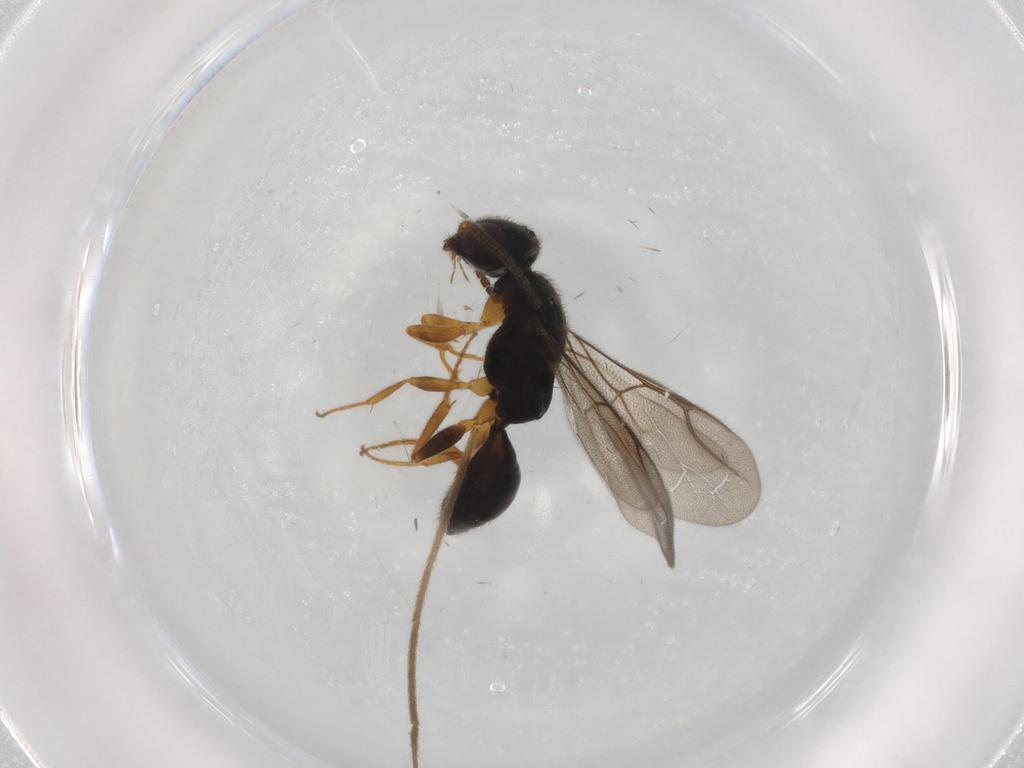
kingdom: Animalia
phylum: Arthropoda
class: Insecta
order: Hymenoptera
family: Bethylidae
